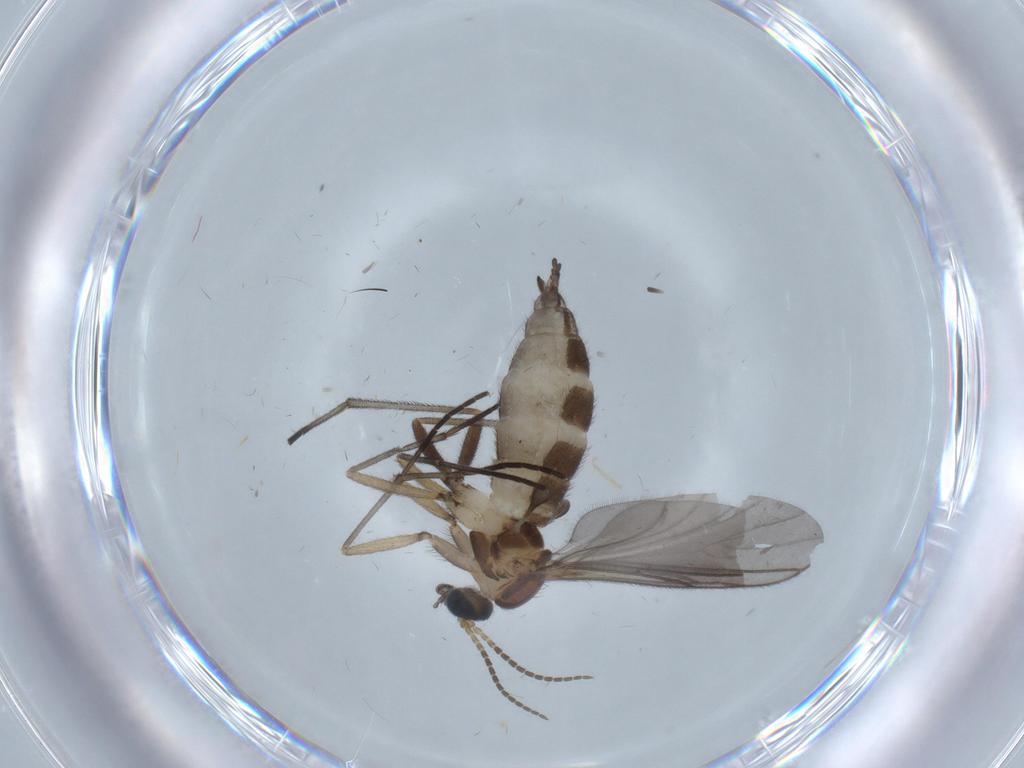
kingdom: Animalia
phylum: Arthropoda
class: Insecta
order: Diptera
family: Sciaridae
